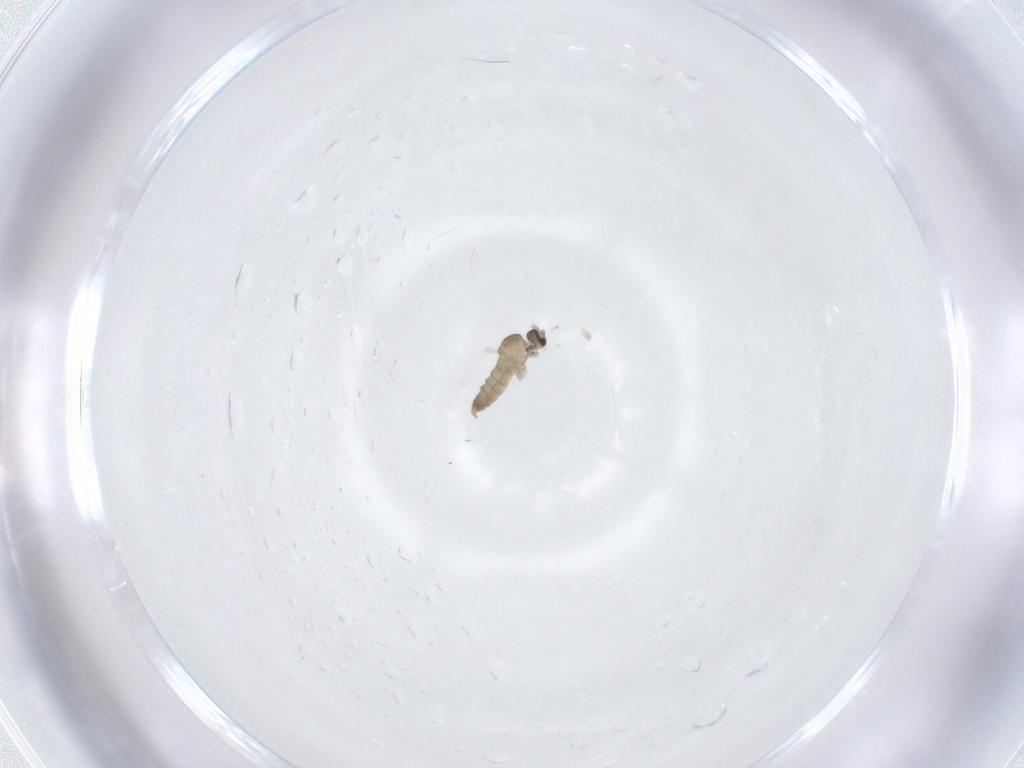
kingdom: Animalia
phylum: Arthropoda
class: Insecta
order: Diptera
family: Cecidomyiidae
